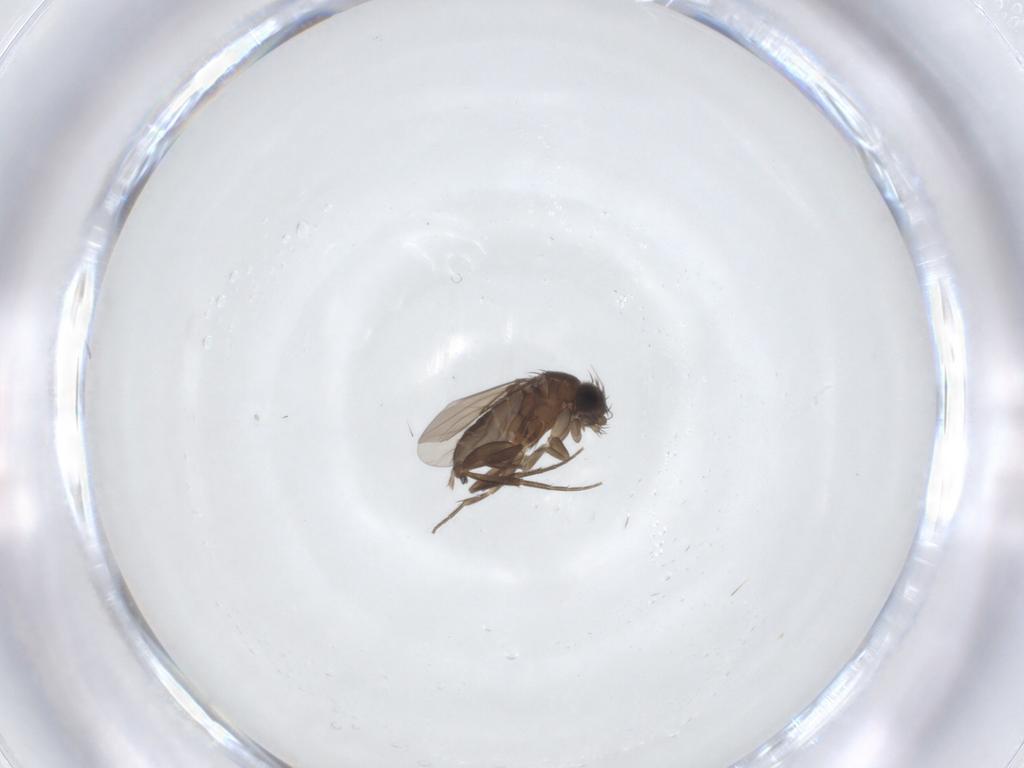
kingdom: Animalia
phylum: Arthropoda
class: Insecta
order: Diptera
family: Phoridae
